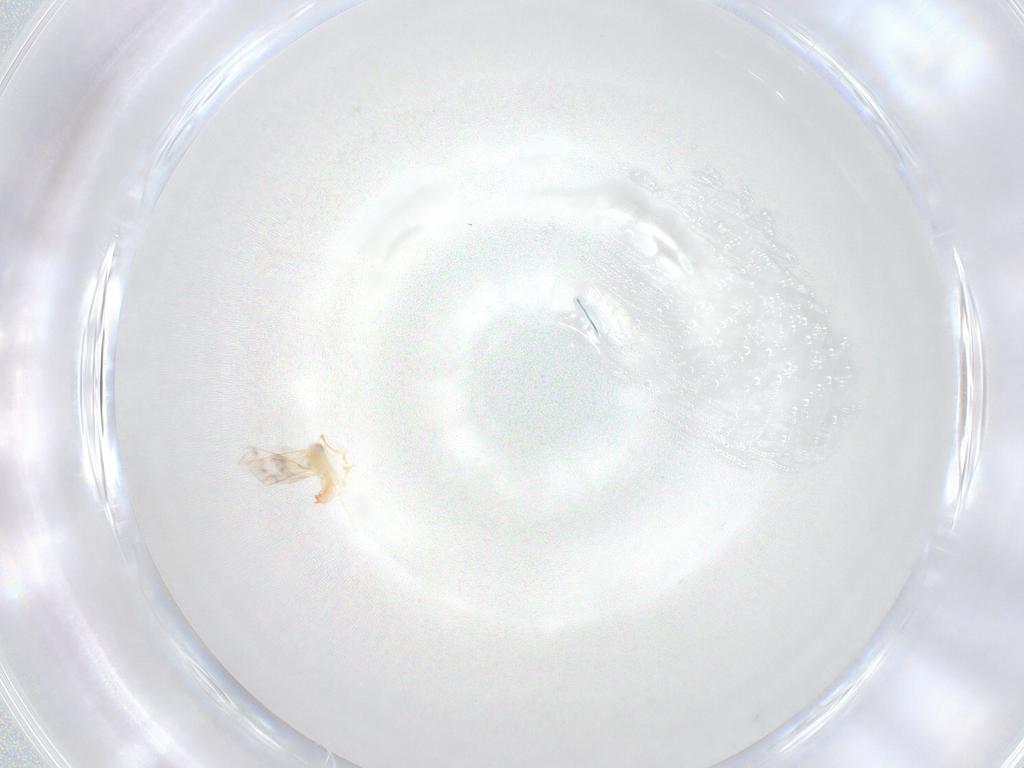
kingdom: Animalia
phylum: Arthropoda
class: Insecta
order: Hemiptera
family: Aleyrodidae
